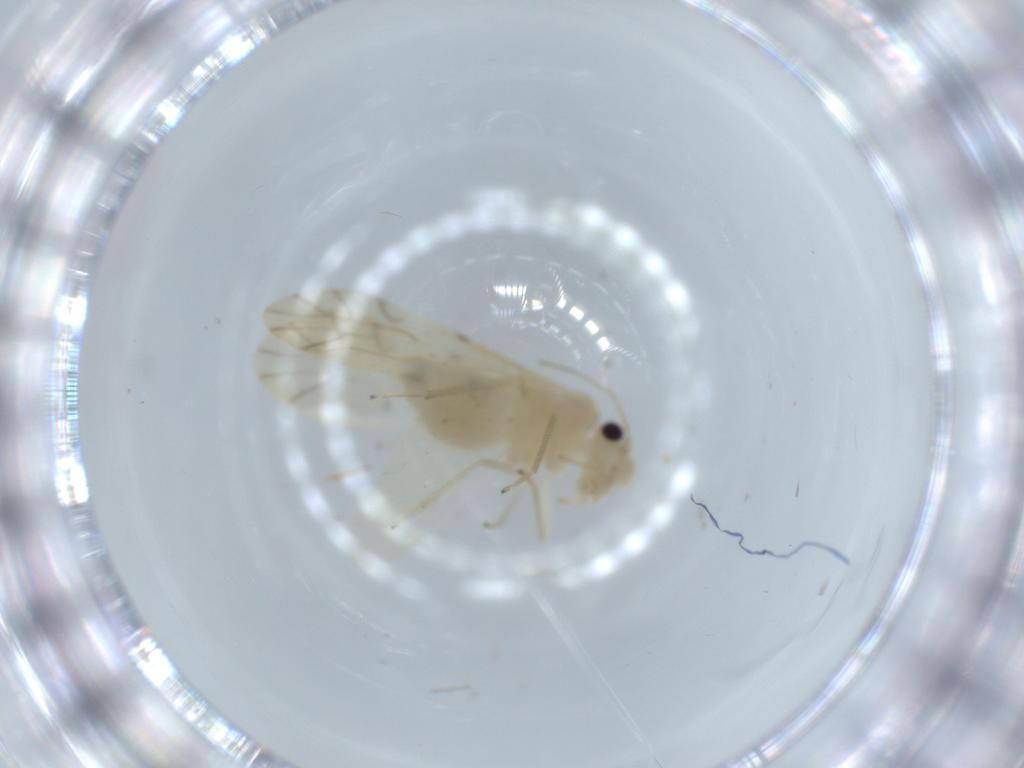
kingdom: Animalia
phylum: Arthropoda
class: Insecta
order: Psocodea
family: Caeciliusidae
